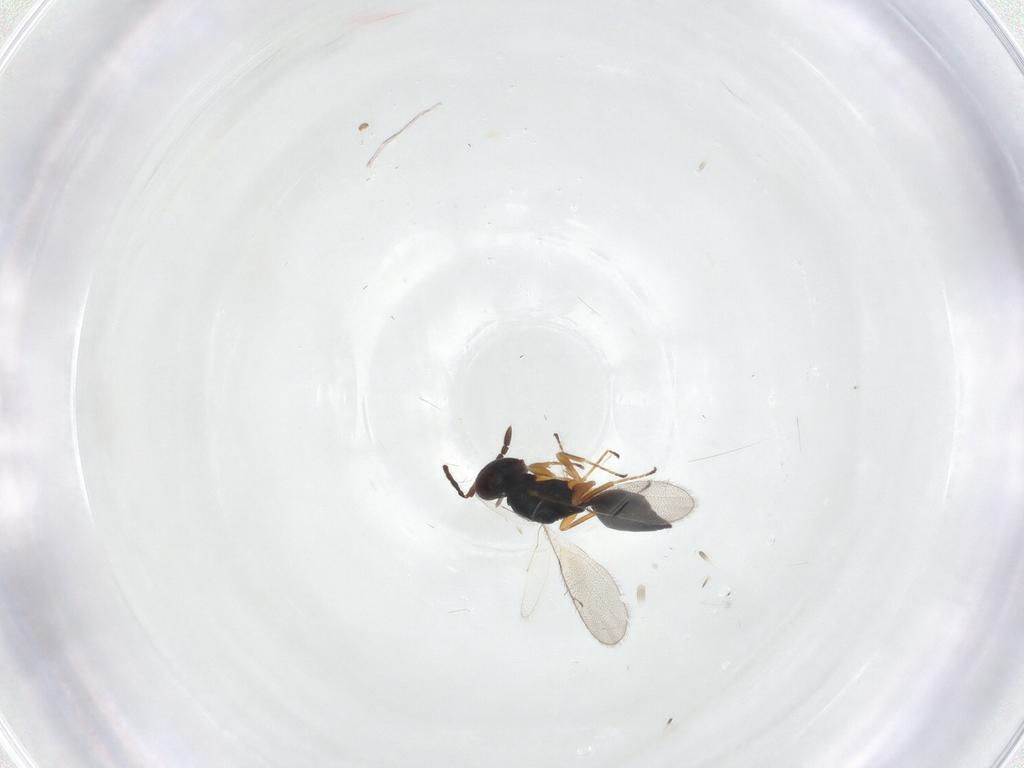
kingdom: Animalia
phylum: Arthropoda
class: Insecta
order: Hymenoptera
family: Pteromalidae
